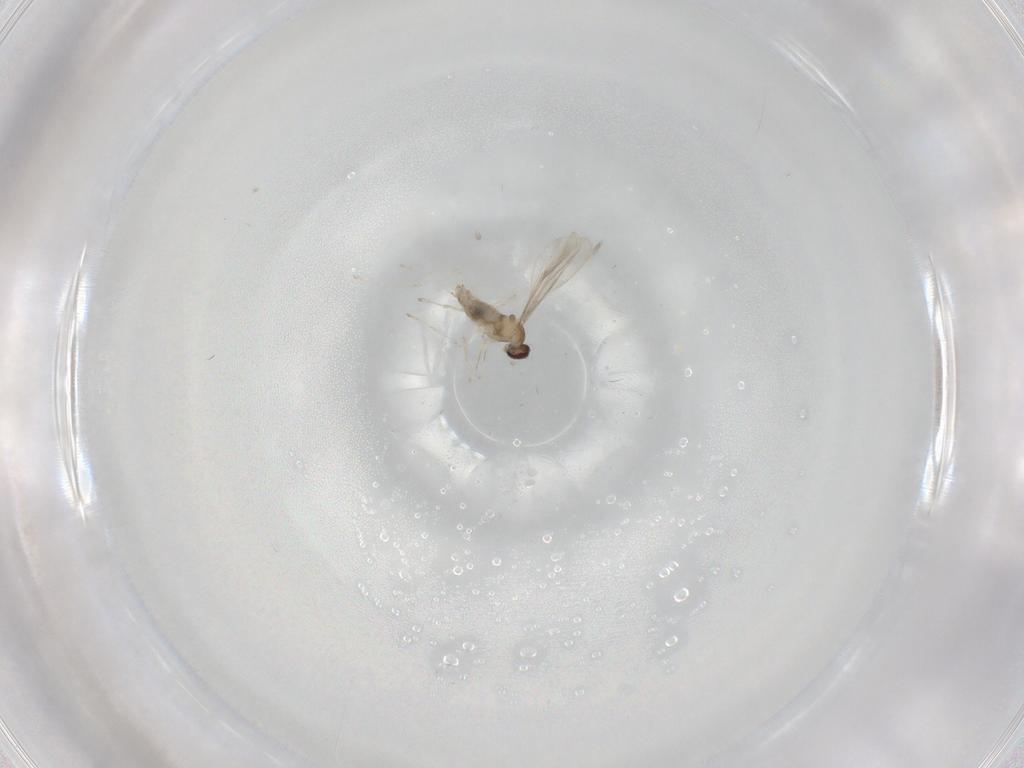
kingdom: Animalia
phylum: Arthropoda
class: Insecta
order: Diptera
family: Cecidomyiidae
